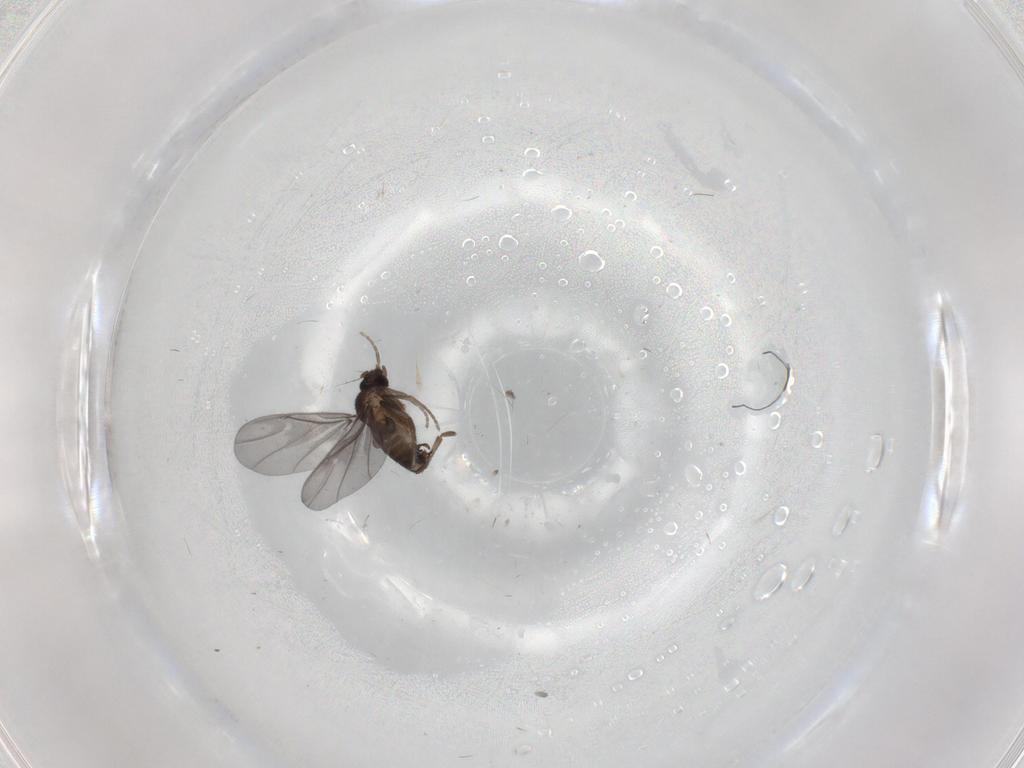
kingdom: Animalia
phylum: Arthropoda
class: Insecta
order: Diptera
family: Phoridae
